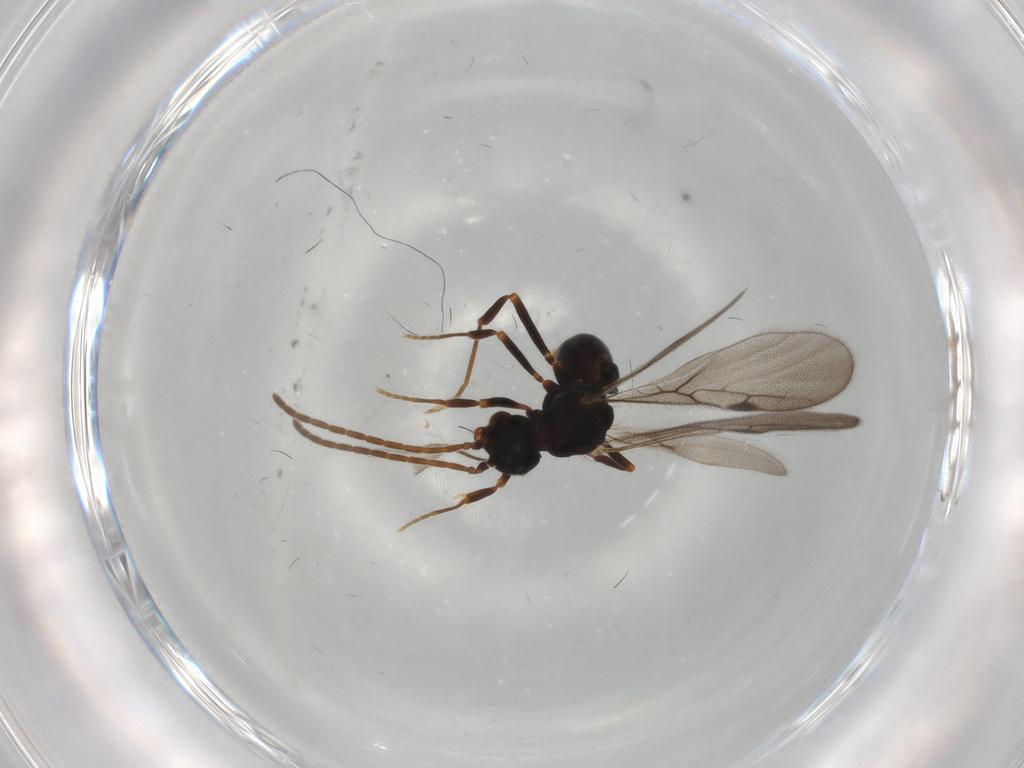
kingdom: Animalia
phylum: Arthropoda
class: Insecta
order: Hymenoptera
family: Formicidae
